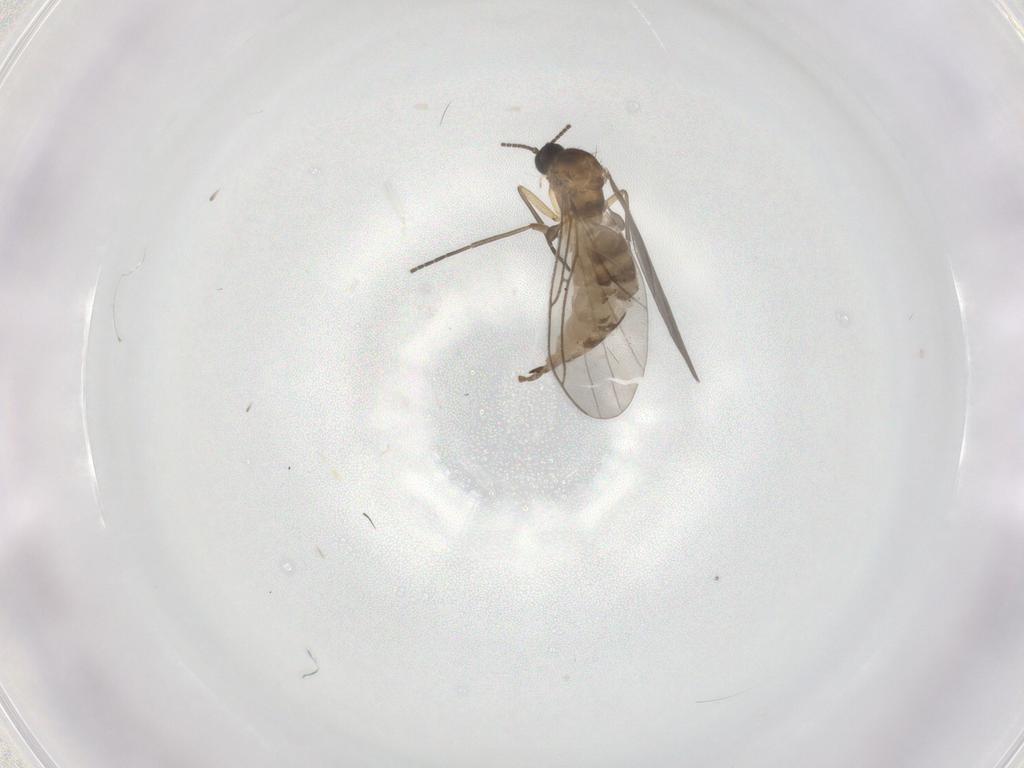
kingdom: Animalia
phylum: Arthropoda
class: Insecta
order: Diptera
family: Sciaridae
